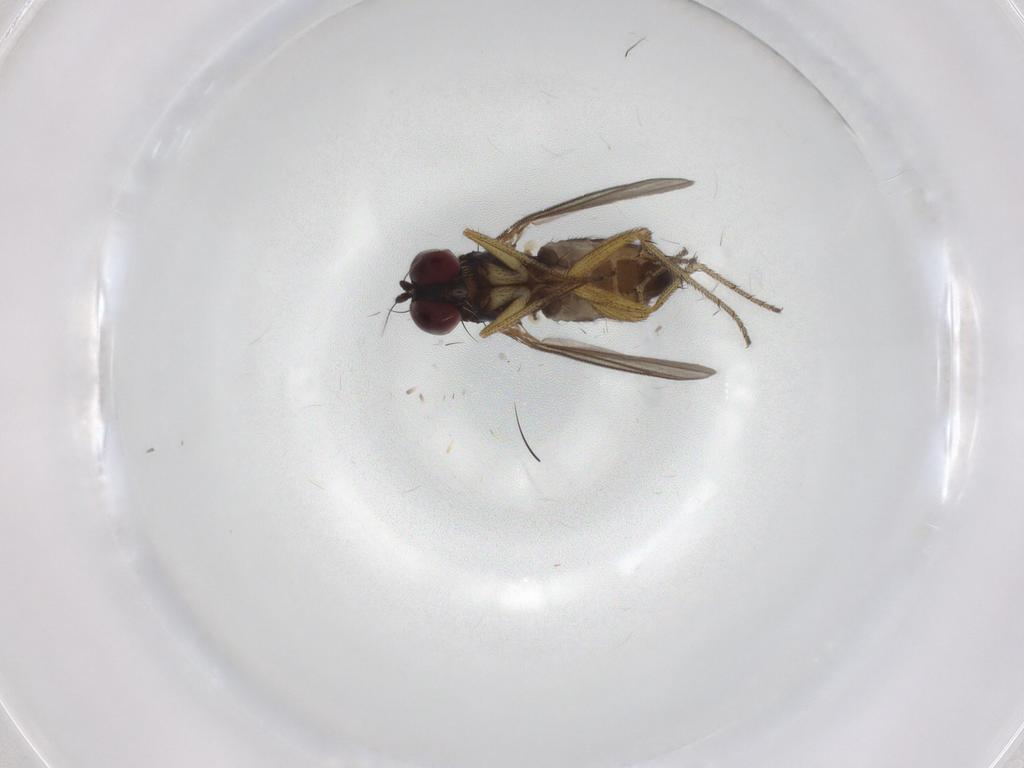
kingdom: Animalia
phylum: Arthropoda
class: Insecta
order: Diptera
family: Dolichopodidae
